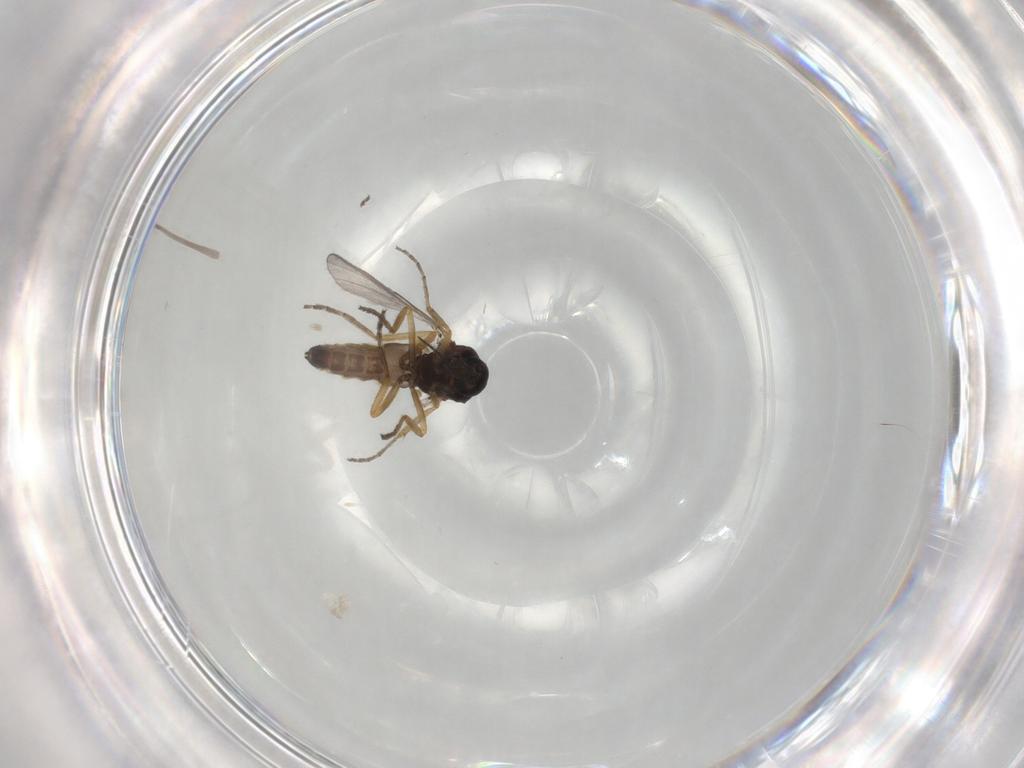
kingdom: Animalia
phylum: Arthropoda
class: Insecta
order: Diptera
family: Ceratopogonidae
